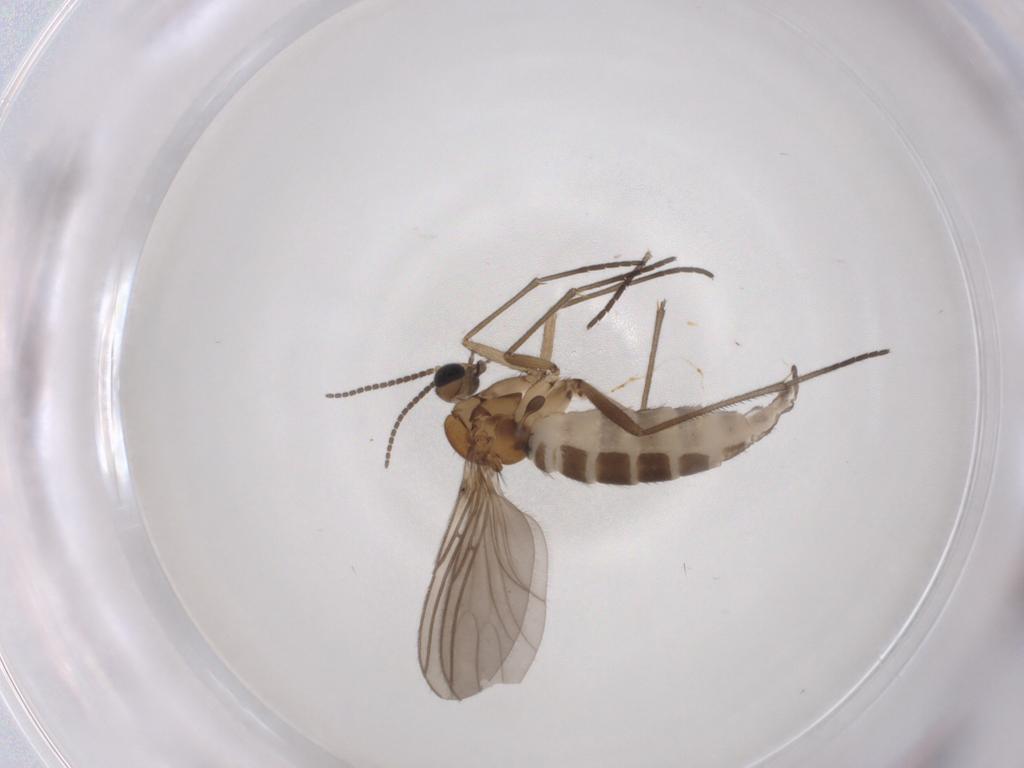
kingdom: Animalia
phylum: Arthropoda
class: Insecta
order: Diptera
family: Sciaridae
